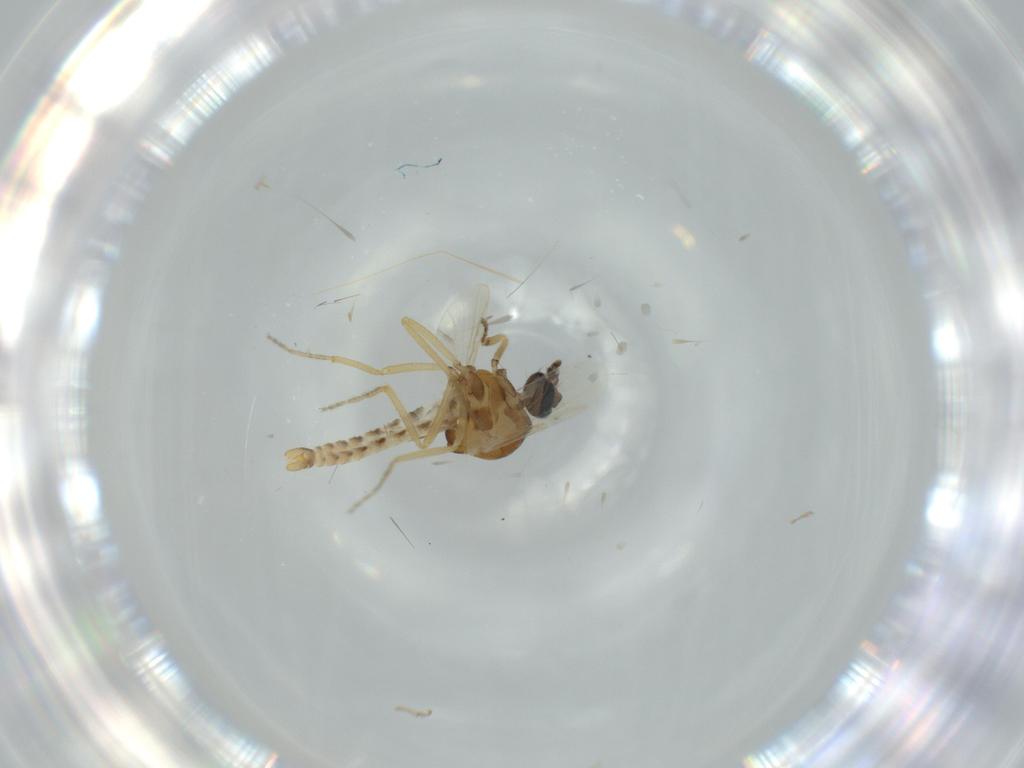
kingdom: Animalia
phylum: Arthropoda
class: Insecta
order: Diptera
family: Ceratopogonidae
